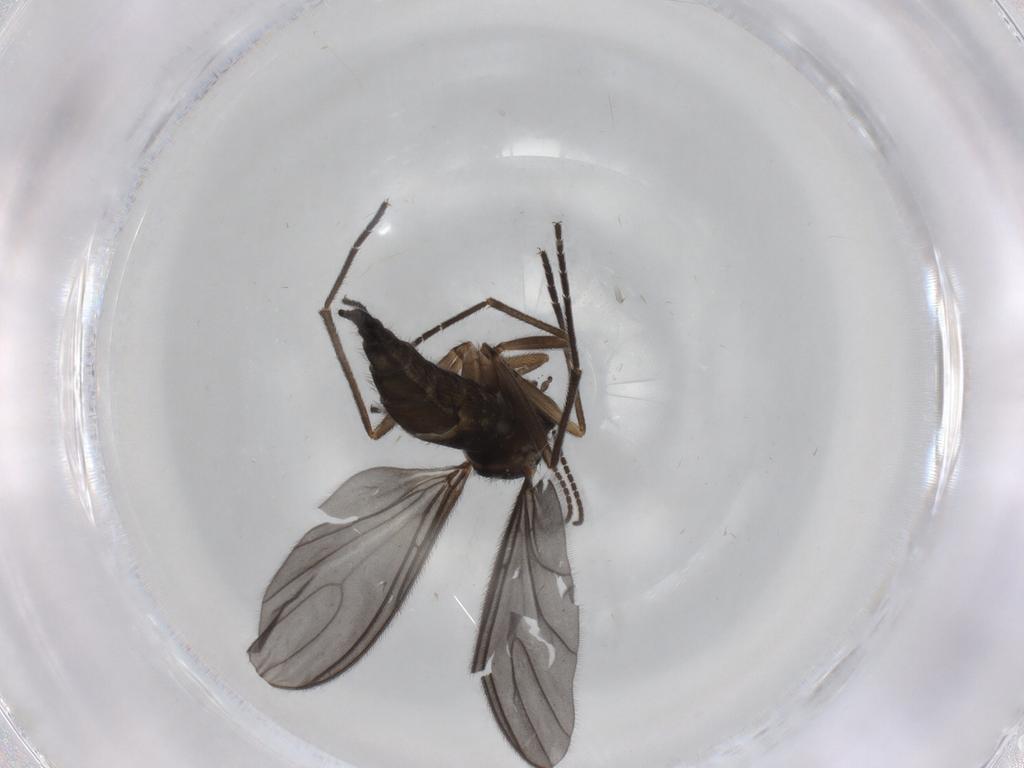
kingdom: Animalia
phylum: Arthropoda
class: Insecta
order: Diptera
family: Sciaridae
